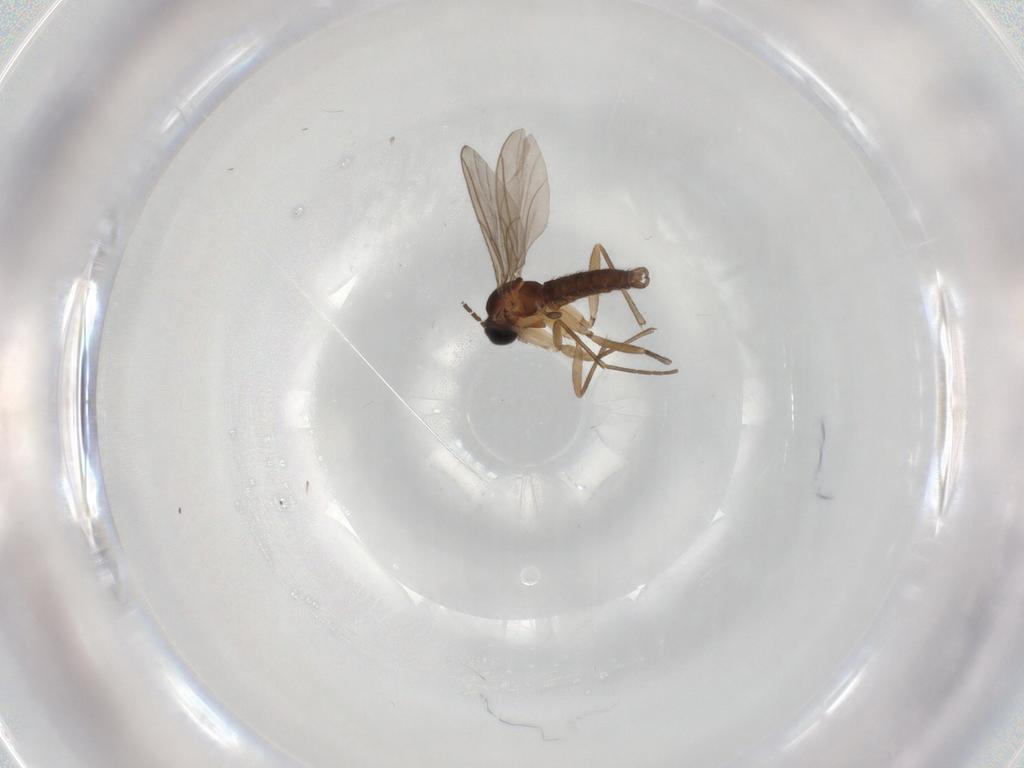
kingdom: Animalia
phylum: Arthropoda
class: Insecta
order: Diptera
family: Sciaridae
